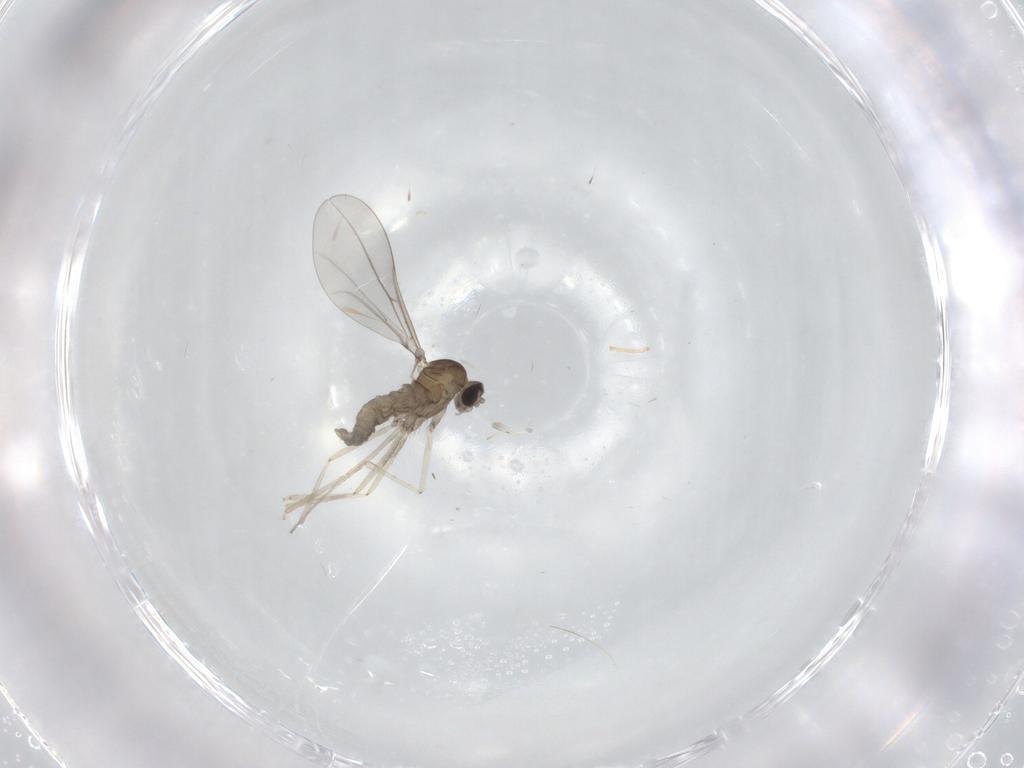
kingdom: Animalia
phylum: Arthropoda
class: Insecta
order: Diptera
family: Cecidomyiidae
